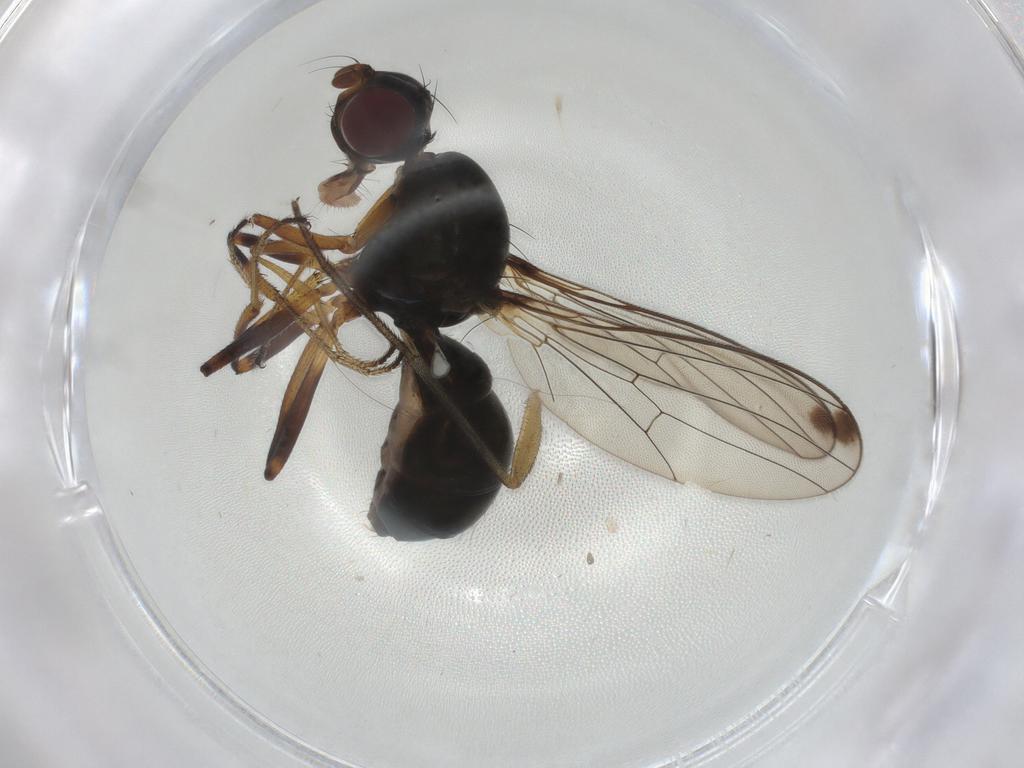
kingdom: Animalia
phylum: Arthropoda
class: Insecta
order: Diptera
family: Sepsidae
